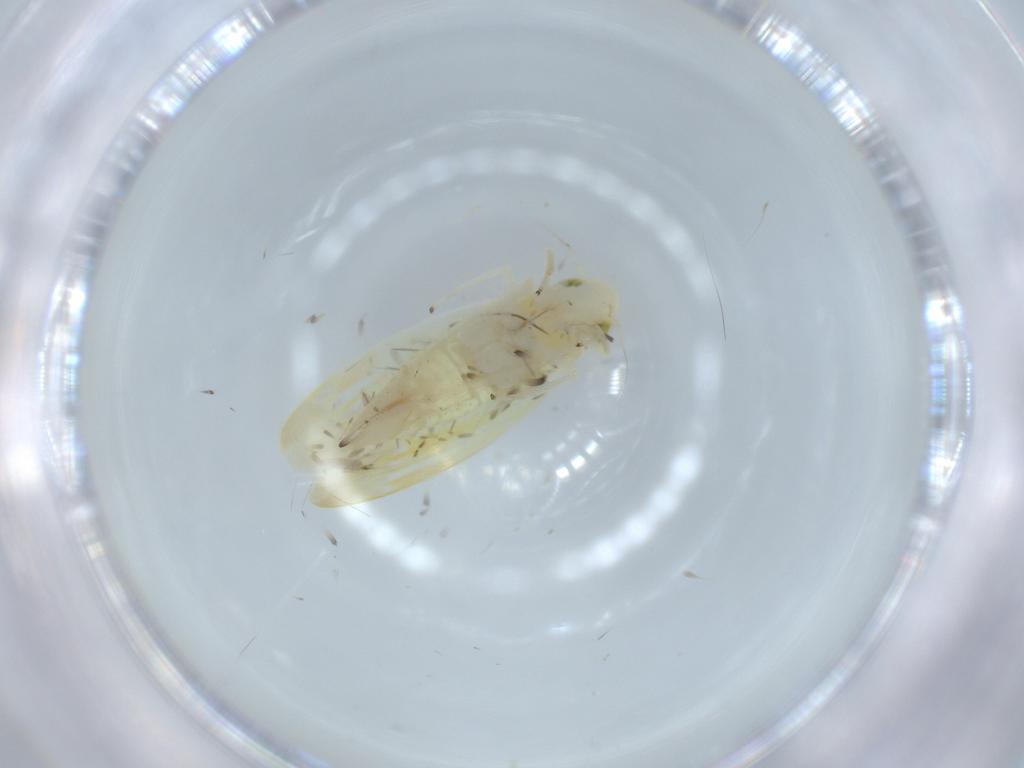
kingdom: Animalia
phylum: Arthropoda
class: Insecta
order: Hemiptera
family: Cicadellidae
